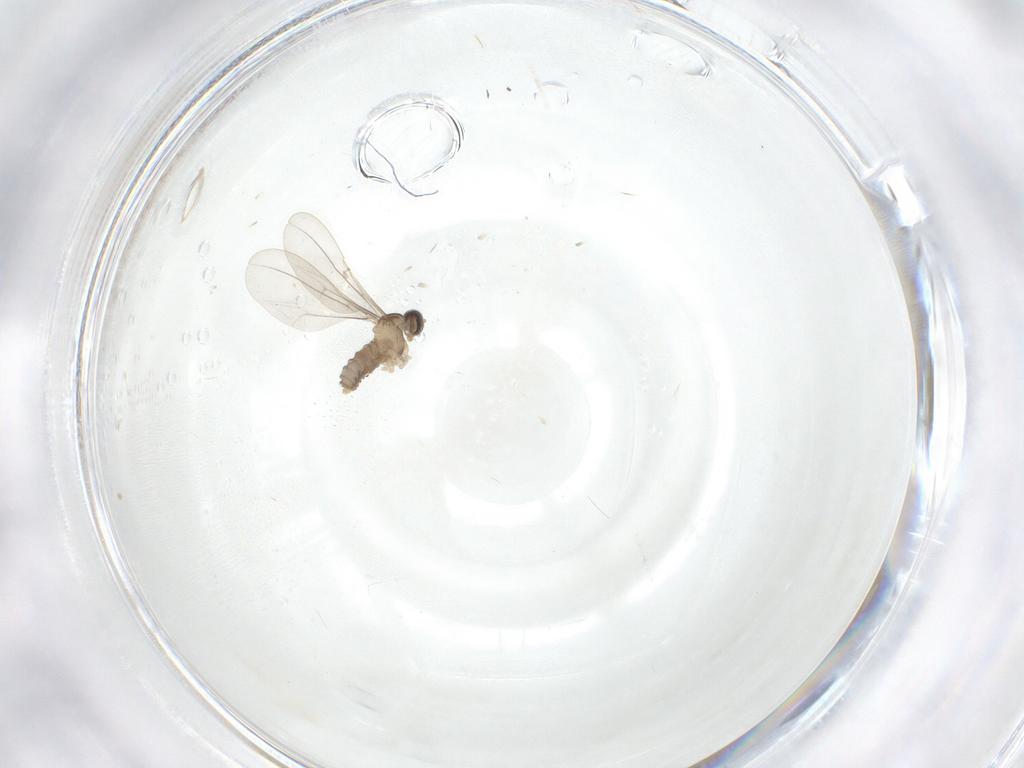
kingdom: Animalia
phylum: Arthropoda
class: Insecta
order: Diptera
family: Cecidomyiidae
